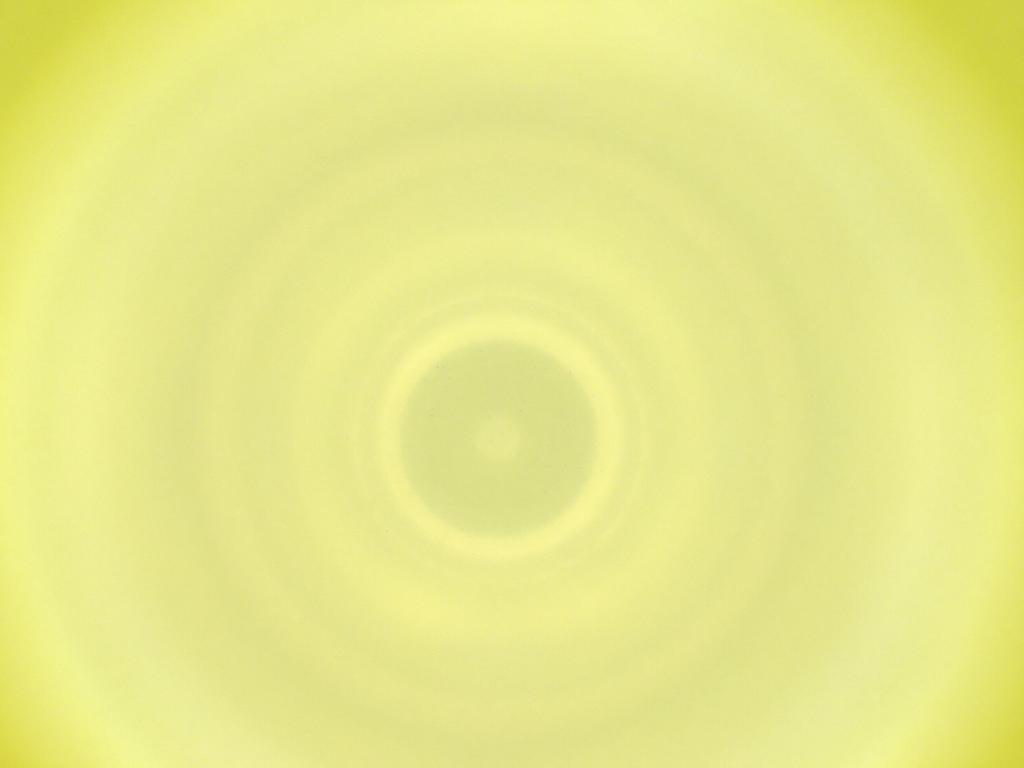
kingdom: Animalia
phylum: Arthropoda
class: Insecta
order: Diptera
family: Cecidomyiidae
